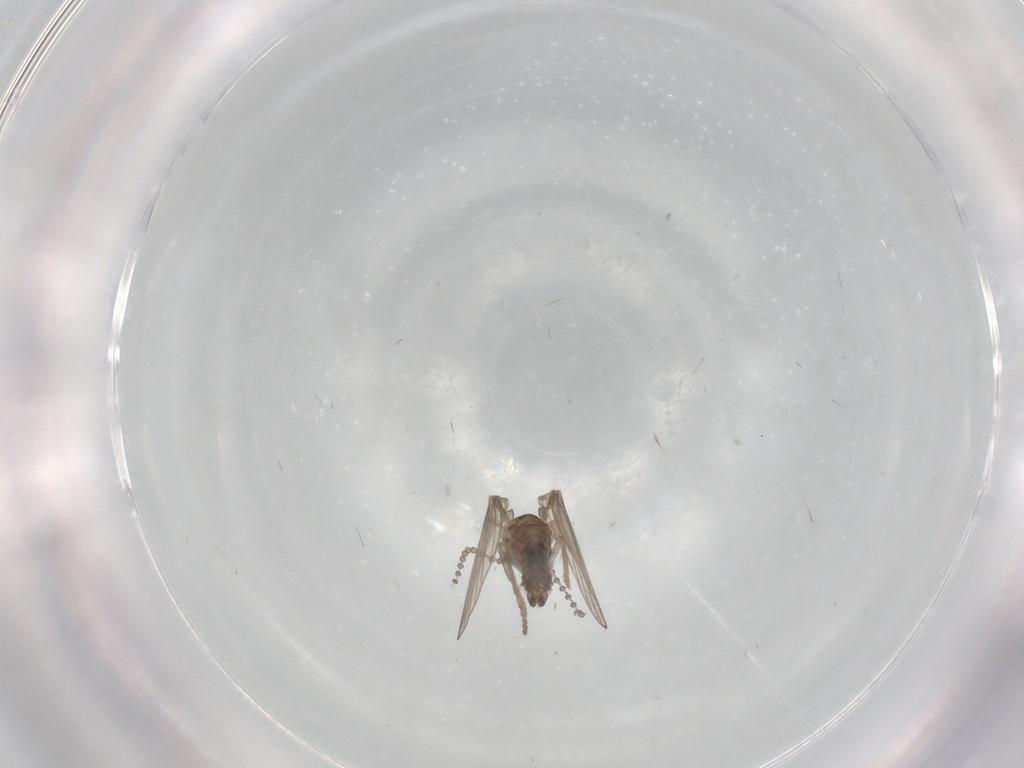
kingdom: Animalia
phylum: Arthropoda
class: Insecta
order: Diptera
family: Psychodidae
